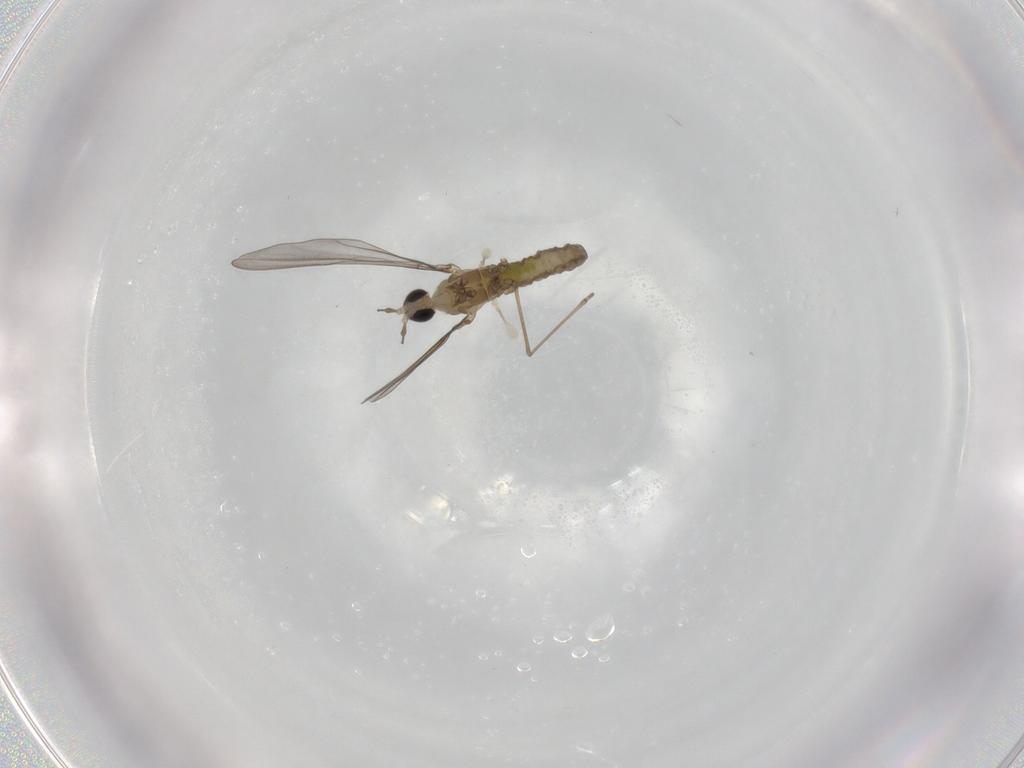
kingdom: Animalia
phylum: Arthropoda
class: Insecta
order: Diptera
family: Cecidomyiidae
